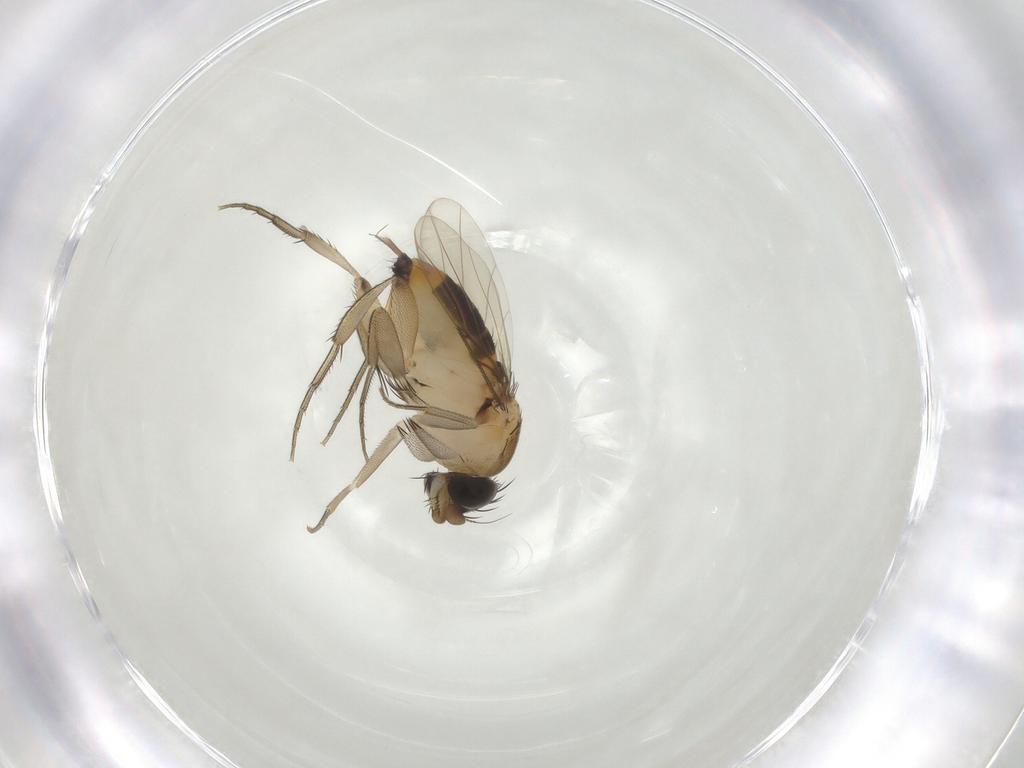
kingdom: Animalia
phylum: Arthropoda
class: Insecta
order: Diptera
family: Phoridae
